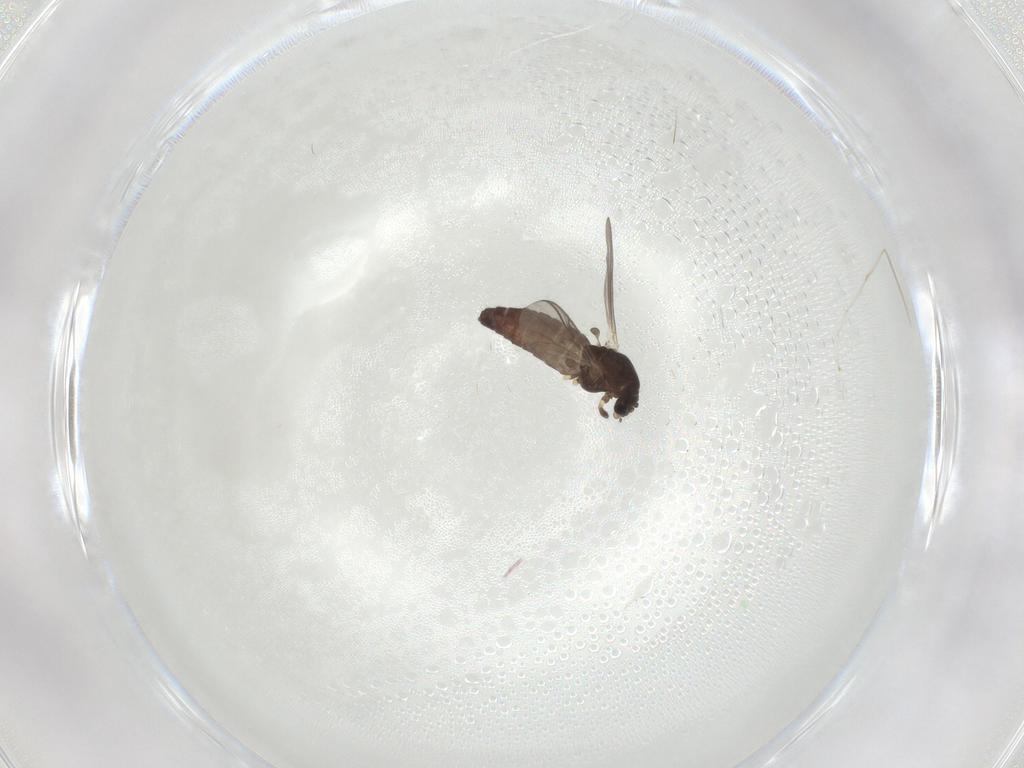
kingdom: Animalia
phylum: Arthropoda
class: Insecta
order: Diptera
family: Chironomidae
